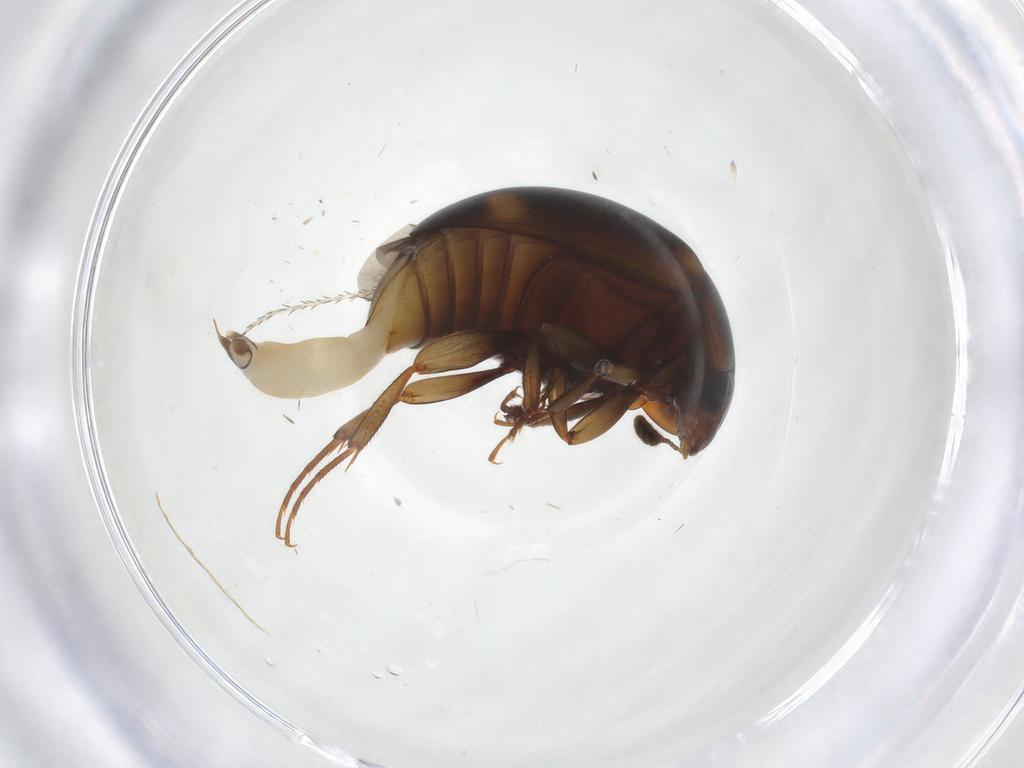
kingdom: Animalia
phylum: Arthropoda
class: Insecta
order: Coleoptera
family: Nitidulidae
